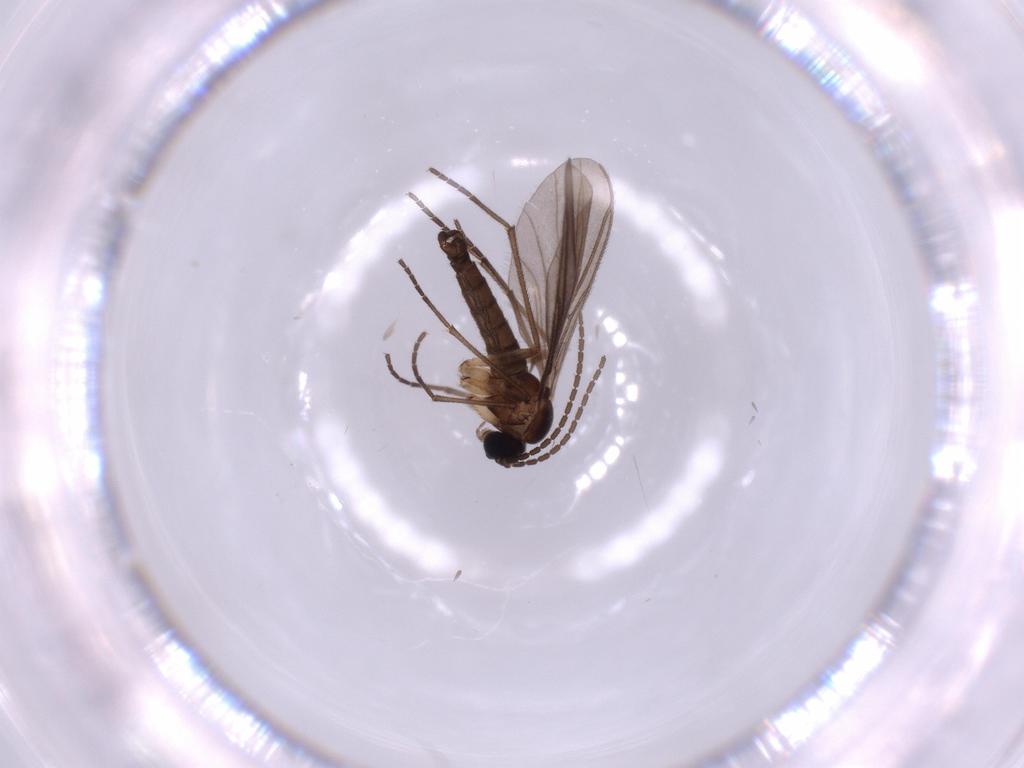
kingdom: Animalia
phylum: Arthropoda
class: Insecta
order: Diptera
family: Sciaridae
